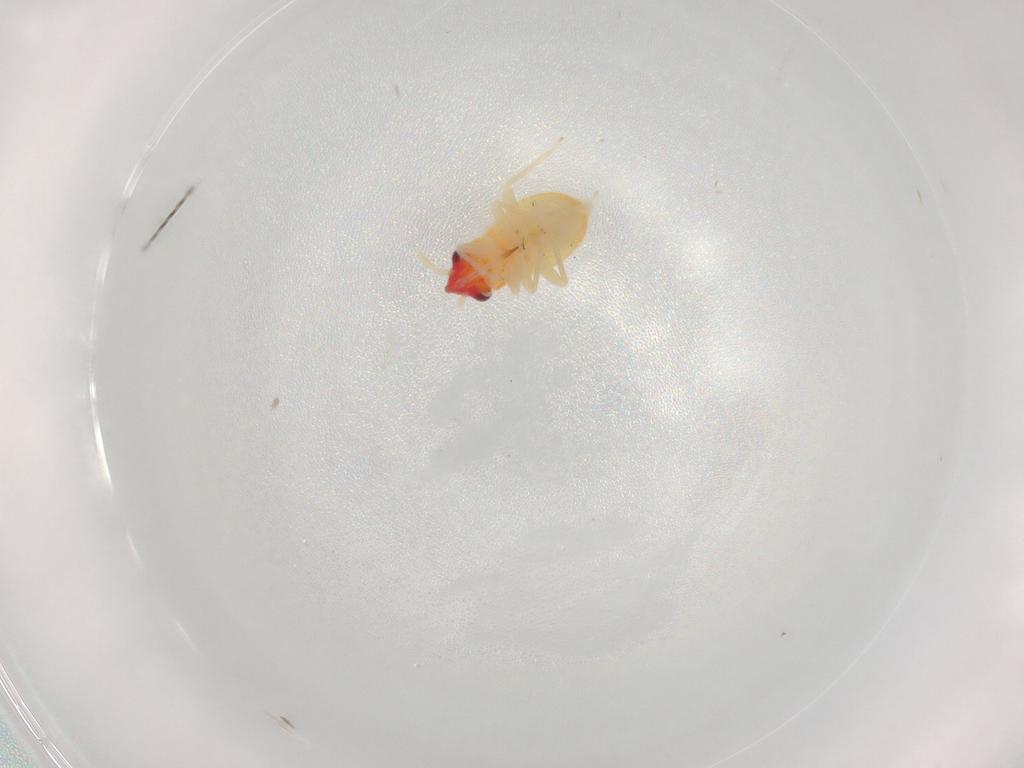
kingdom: Animalia
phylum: Arthropoda
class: Insecta
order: Hemiptera
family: Miridae
